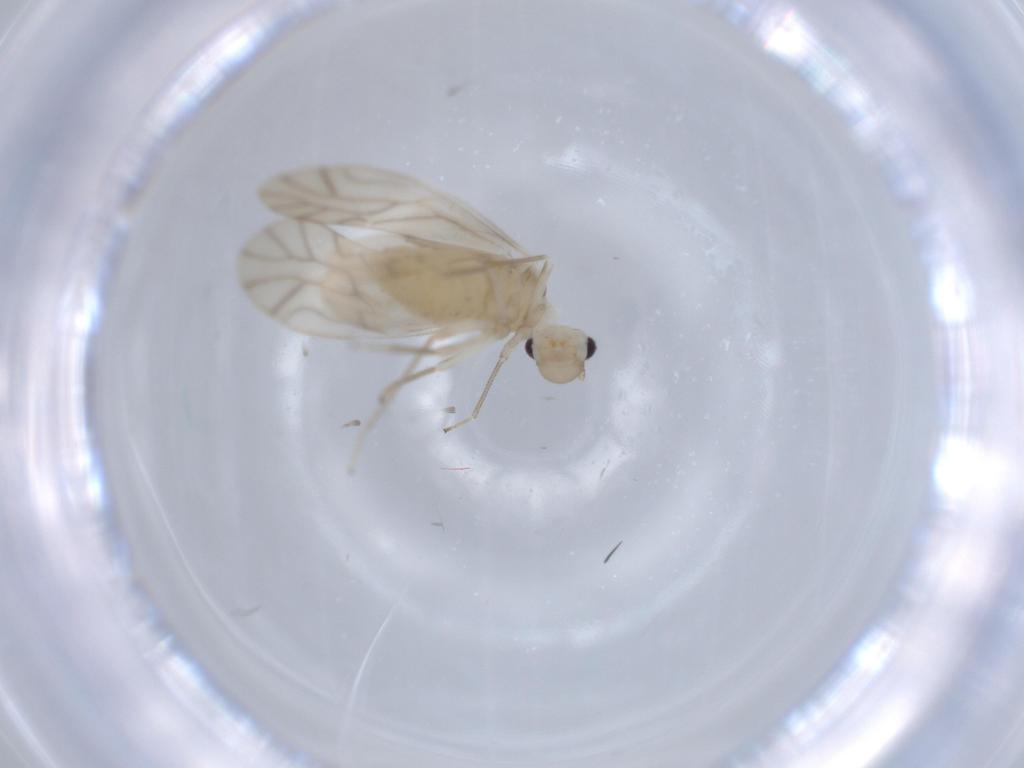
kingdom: Animalia
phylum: Arthropoda
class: Insecta
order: Psocodea
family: Caeciliusidae
